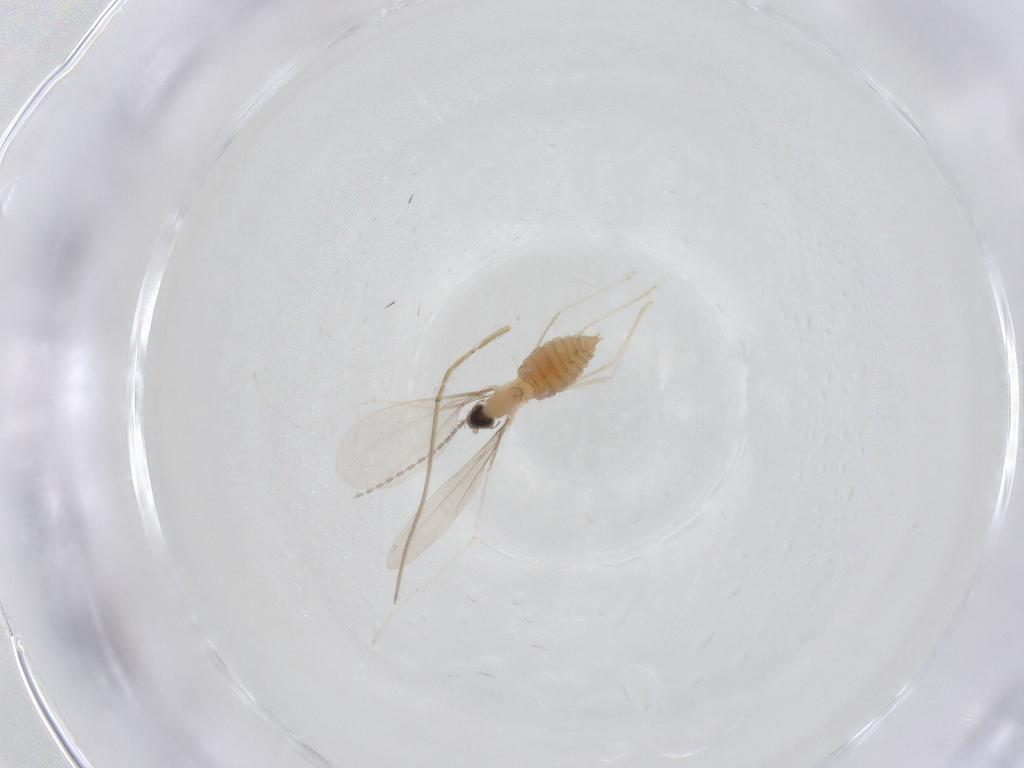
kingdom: Animalia
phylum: Arthropoda
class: Insecta
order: Diptera
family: Cecidomyiidae
